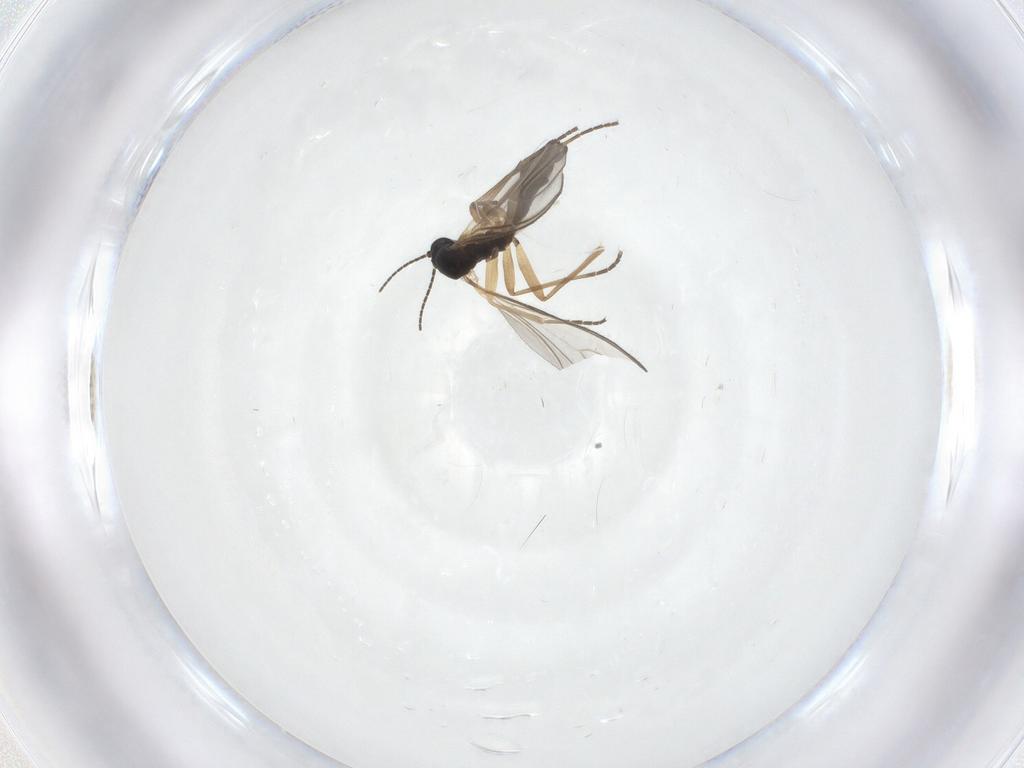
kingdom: Animalia
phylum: Arthropoda
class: Insecta
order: Diptera
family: Chironomidae
